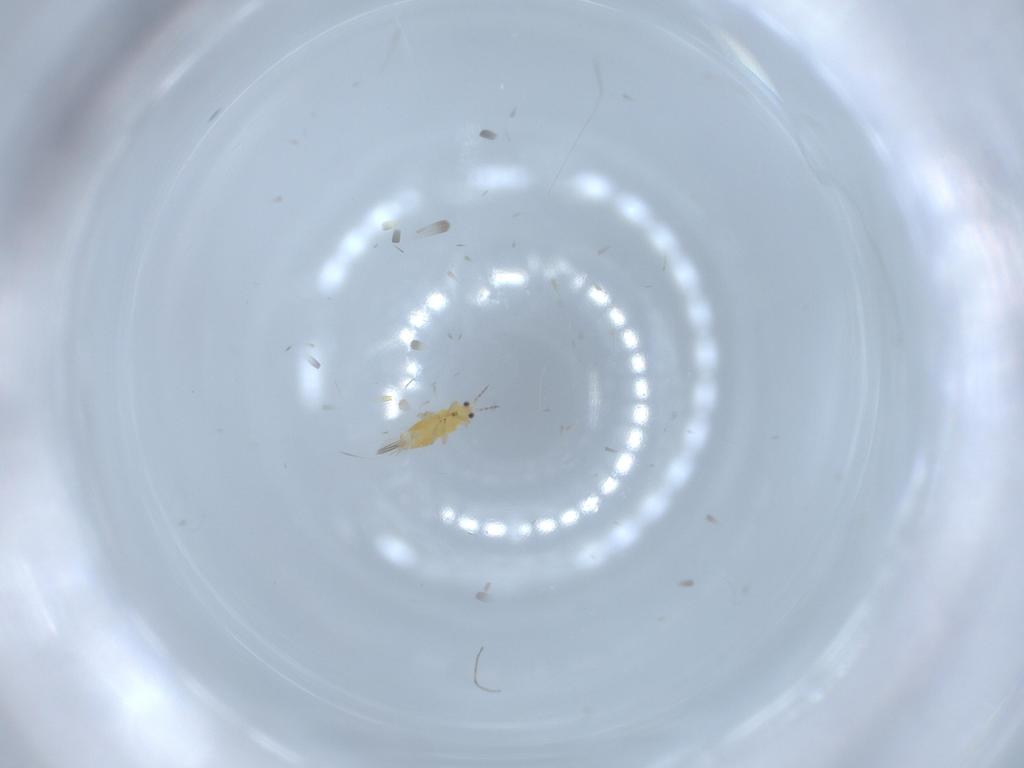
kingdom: Animalia
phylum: Arthropoda
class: Insecta
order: Thysanoptera
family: Thripidae
